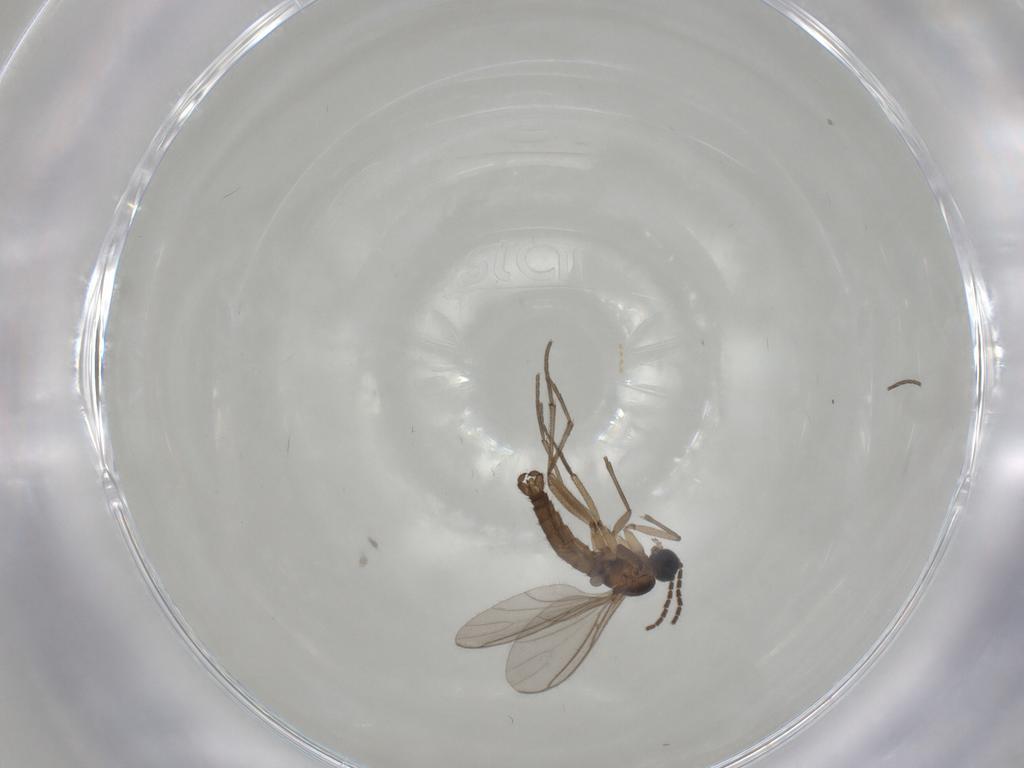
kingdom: Animalia
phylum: Arthropoda
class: Insecta
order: Diptera
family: Sciaridae
